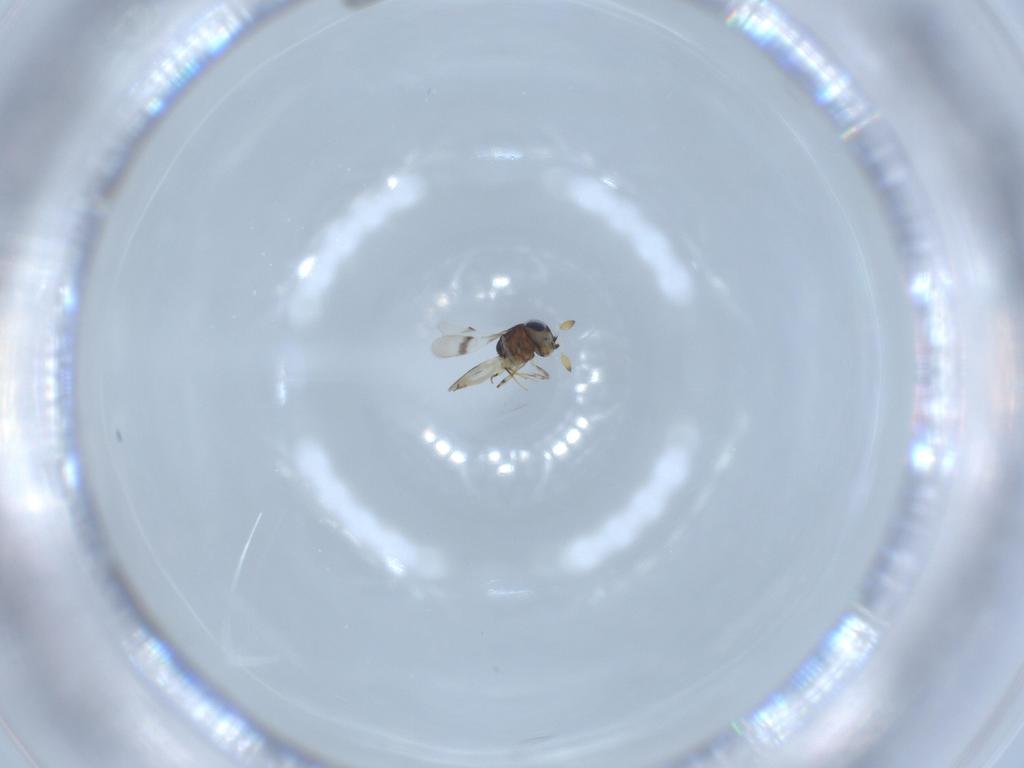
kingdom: Animalia
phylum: Arthropoda
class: Insecta
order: Hymenoptera
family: Scelionidae
